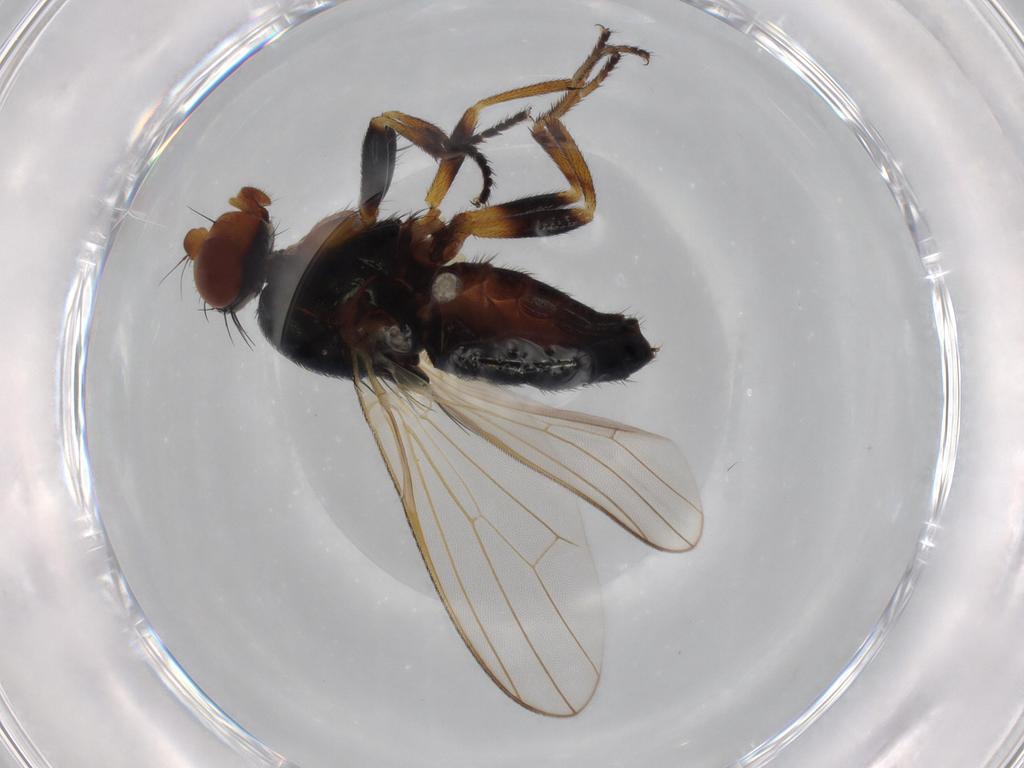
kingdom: Animalia
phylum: Arthropoda
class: Insecta
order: Diptera
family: Piophilidae
